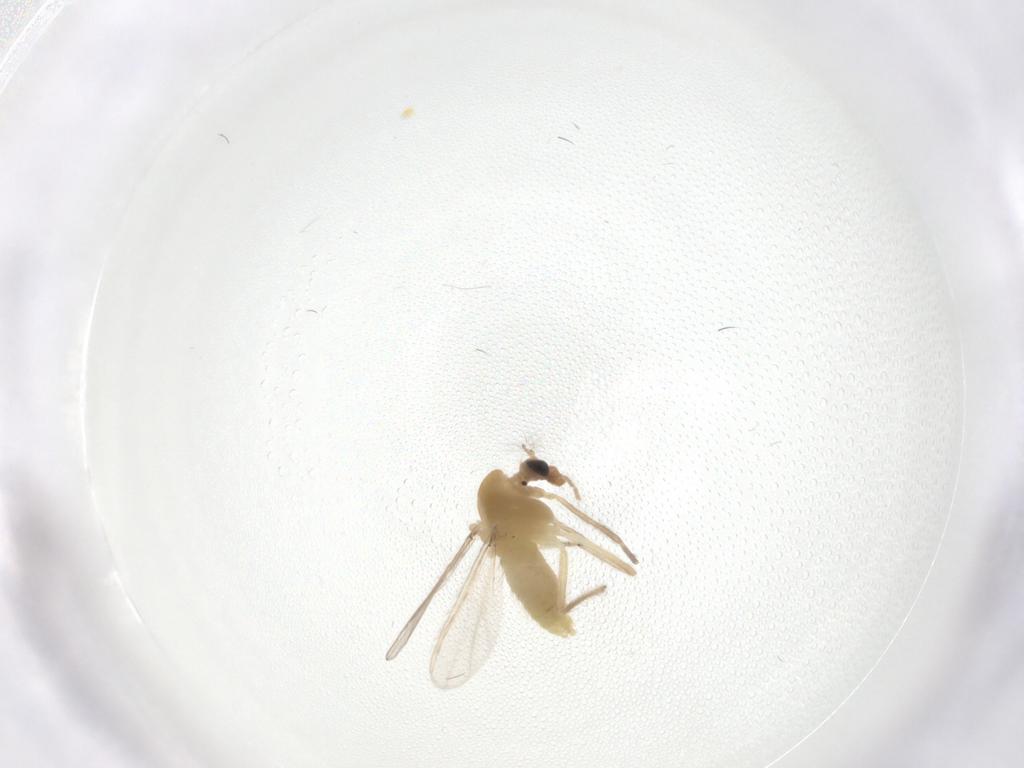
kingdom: Animalia
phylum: Arthropoda
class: Insecta
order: Diptera
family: Chironomidae
